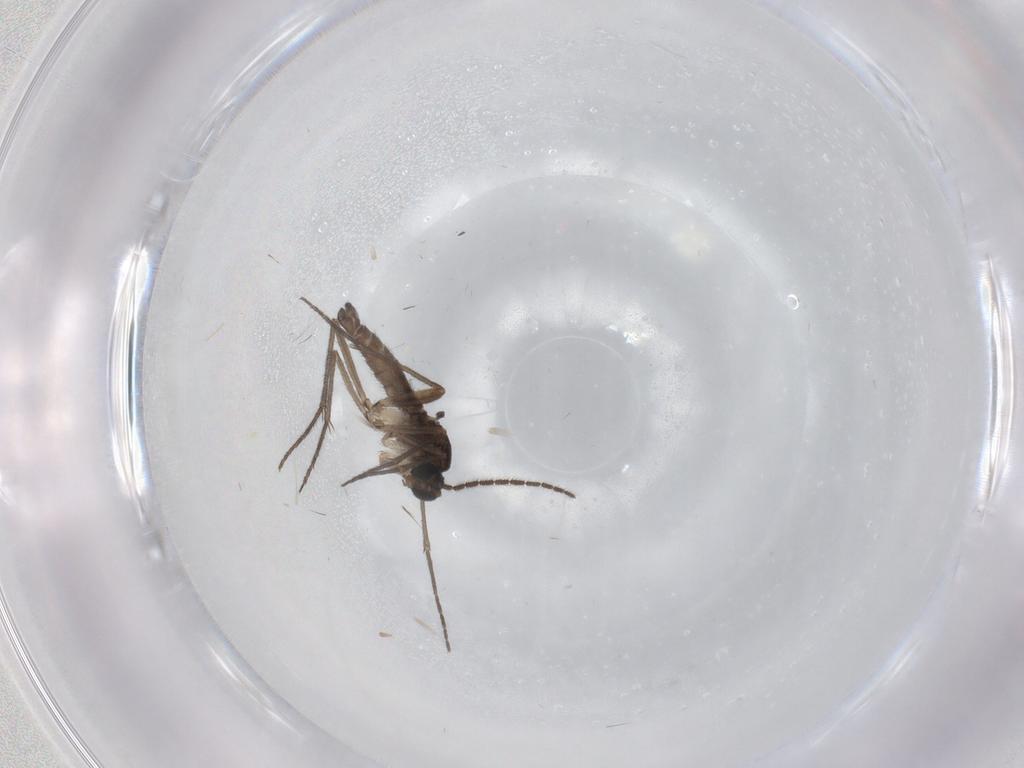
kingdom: Animalia
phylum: Arthropoda
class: Insecta
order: Diptera
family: Sciaridae
